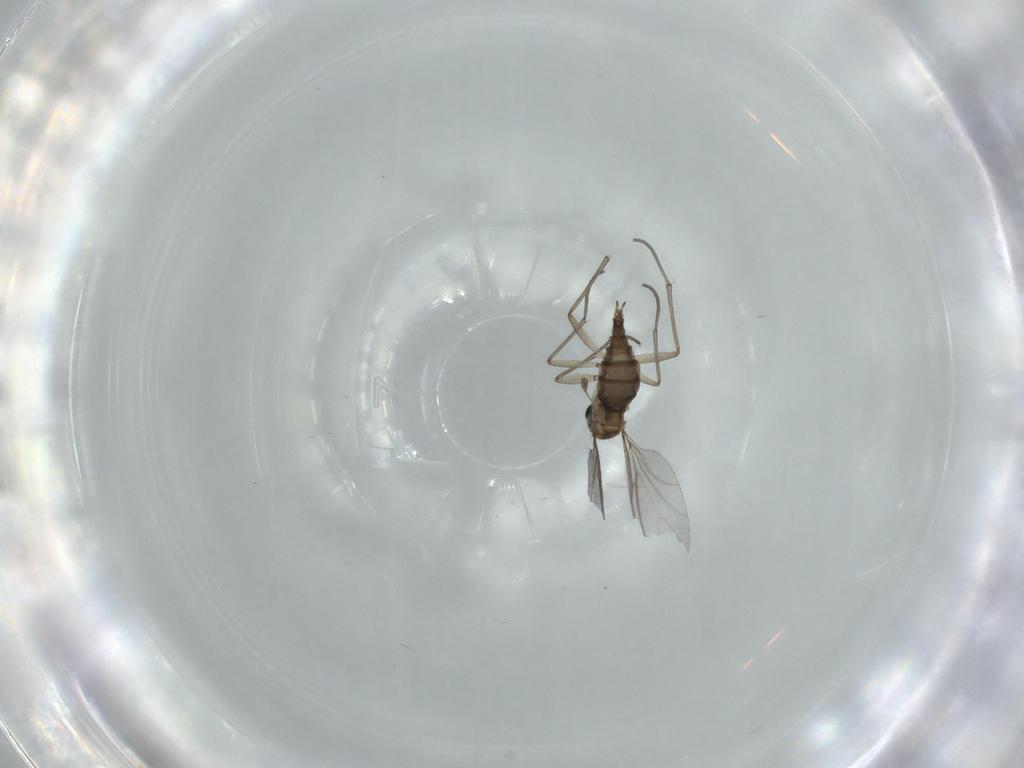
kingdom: Animalia
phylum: Arthropoda
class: Insecta
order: Diptera
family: Sciaridae
